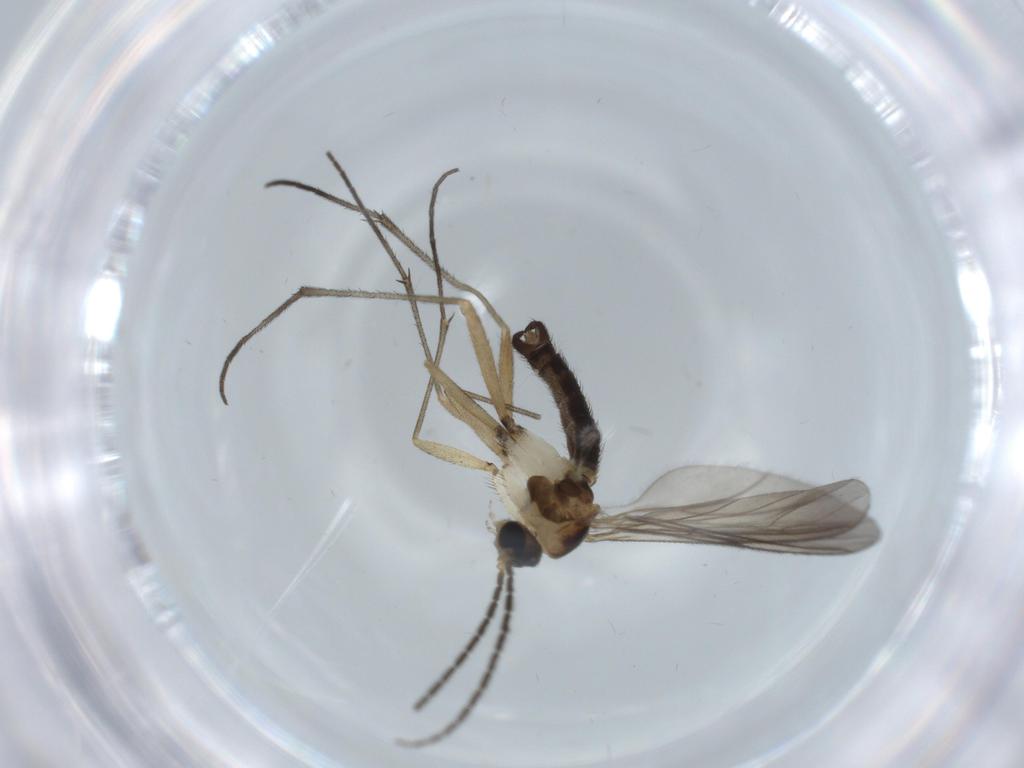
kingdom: Animalia
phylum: Arthropoda
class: Insecta
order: Diptera
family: Sciaridae
